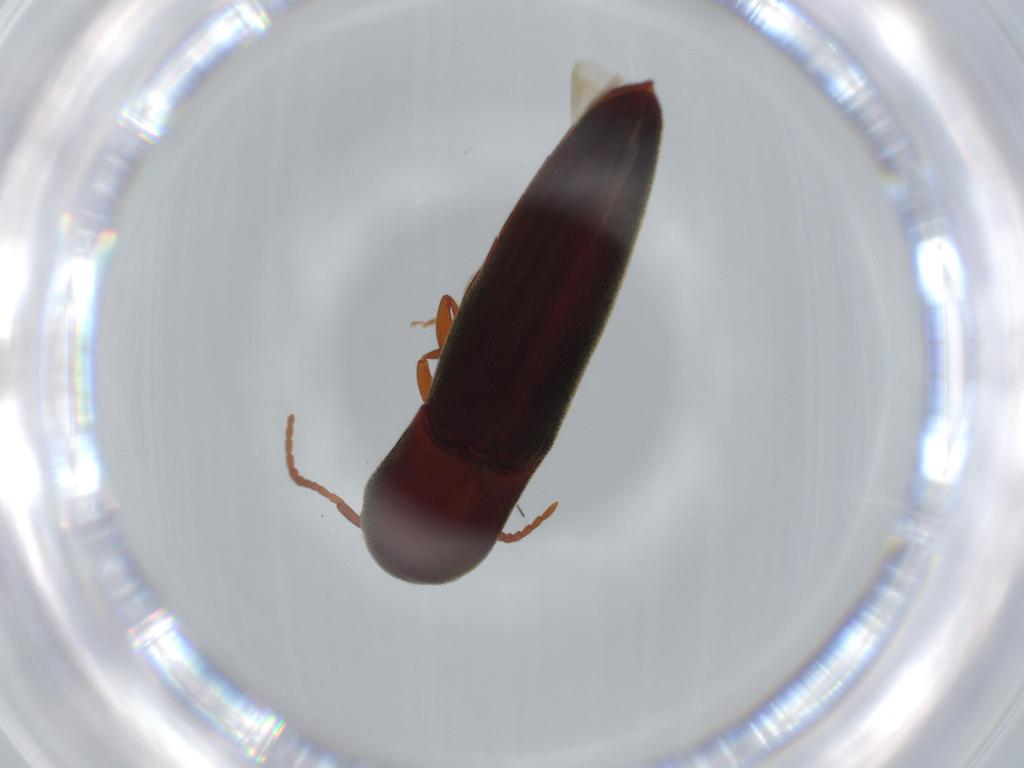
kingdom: Animalia
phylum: Arthropoda
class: Insecta
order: Coleoptera
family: Eucnemidae
